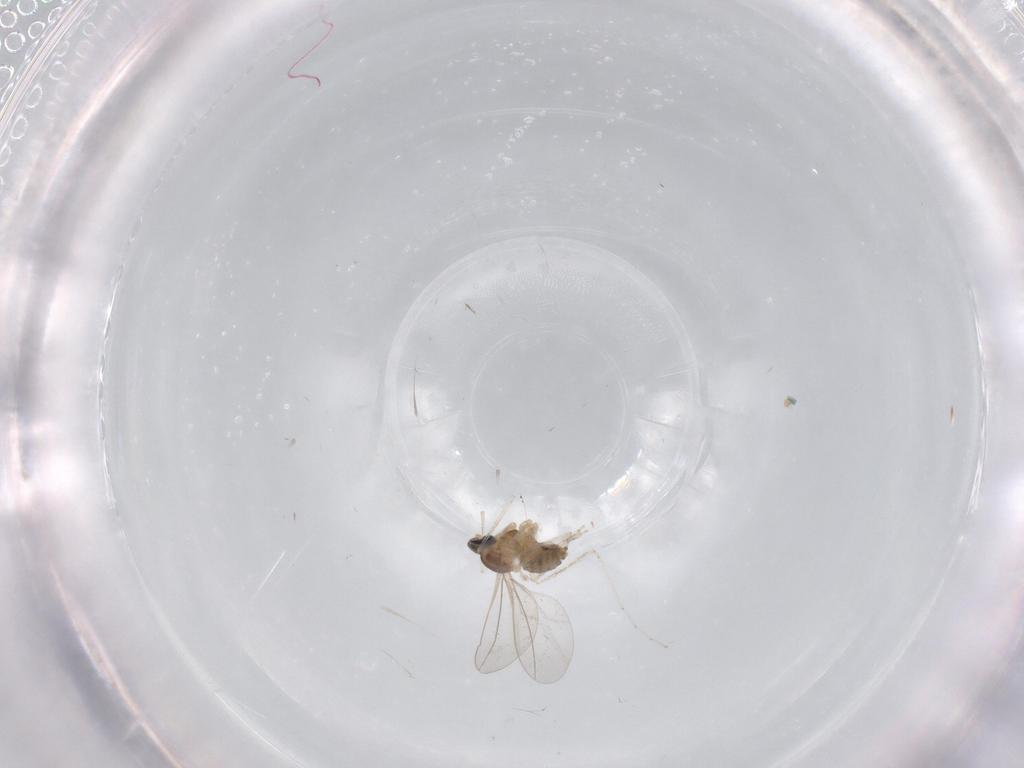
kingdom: Animalia
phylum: Arthropoda
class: Insecta
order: Diptera
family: Cecidomyiidae
